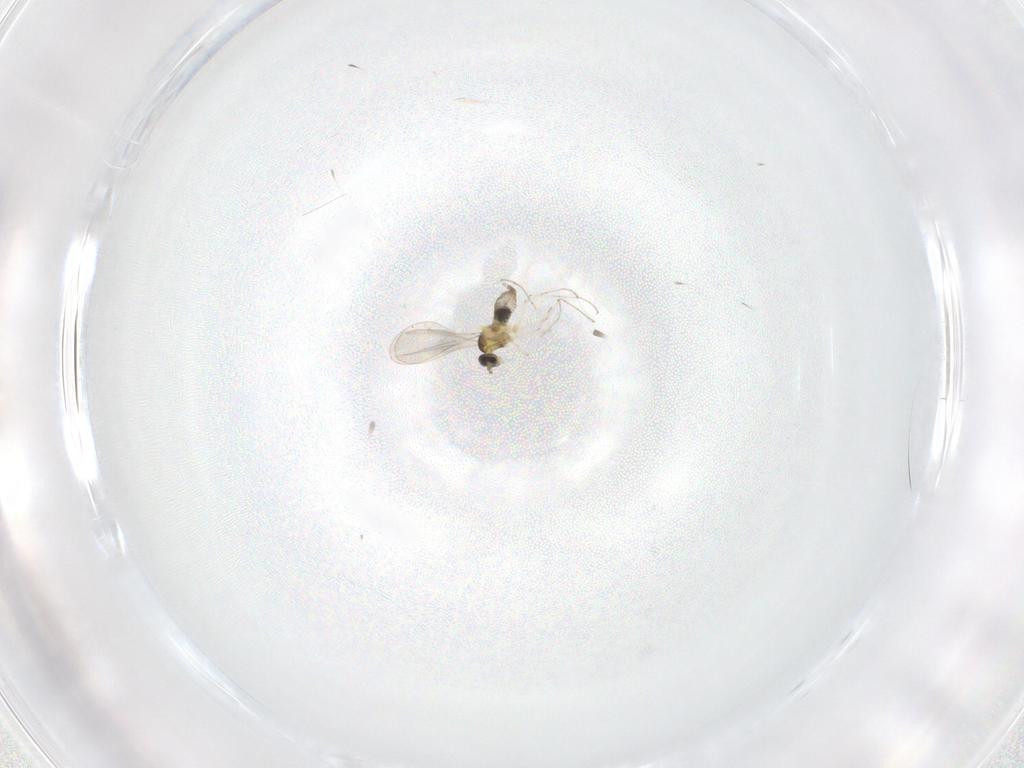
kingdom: Animalia
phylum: Arthropoda
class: Insecta
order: Diptera
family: Cecidomyiidae
